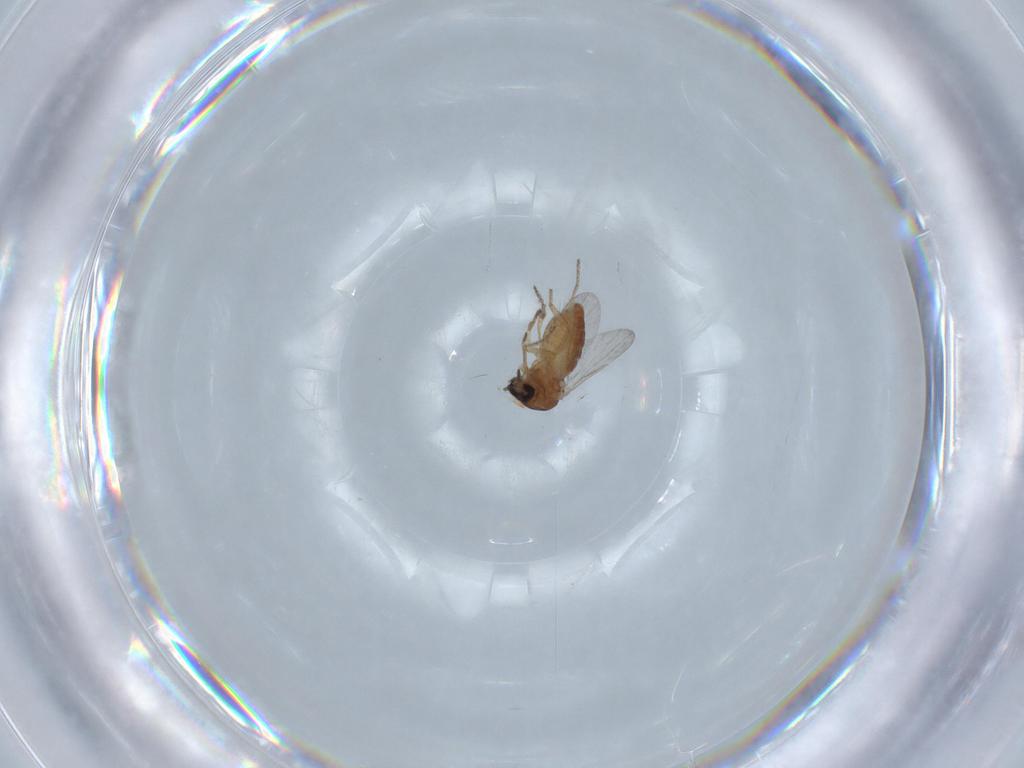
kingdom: Animalia
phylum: Arthropoda
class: Insecta
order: Diptera
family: Ceratopogonidae
